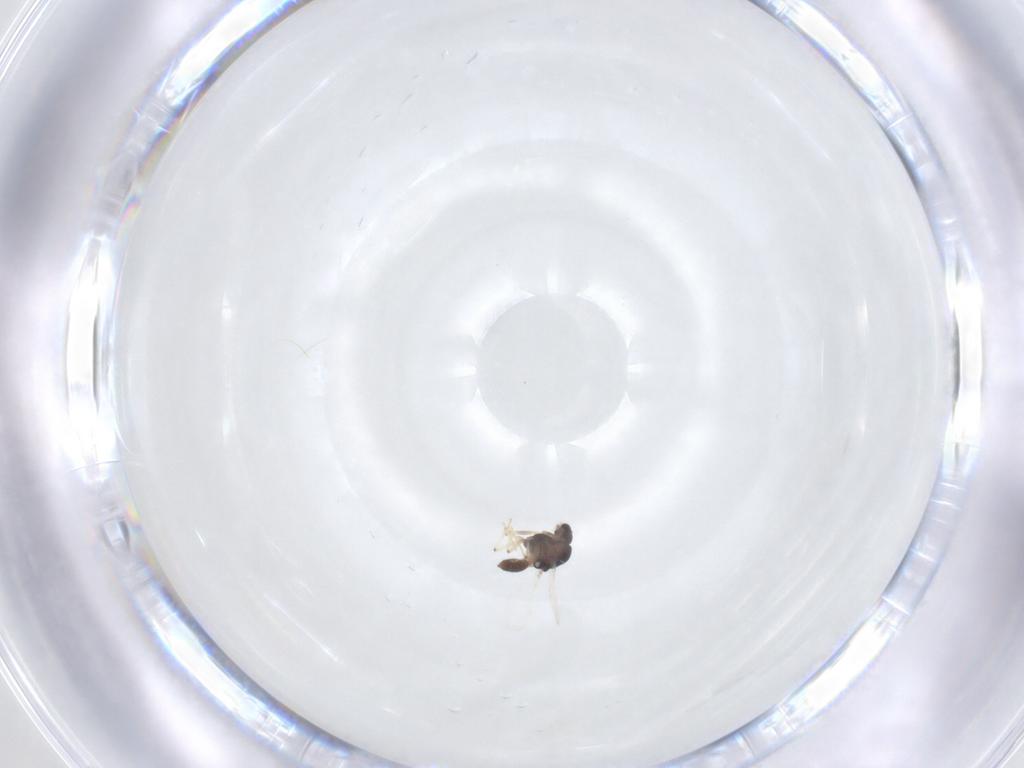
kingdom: Animalia
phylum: Arthropoda
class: Insecta
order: Diptera
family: Chironomidae
